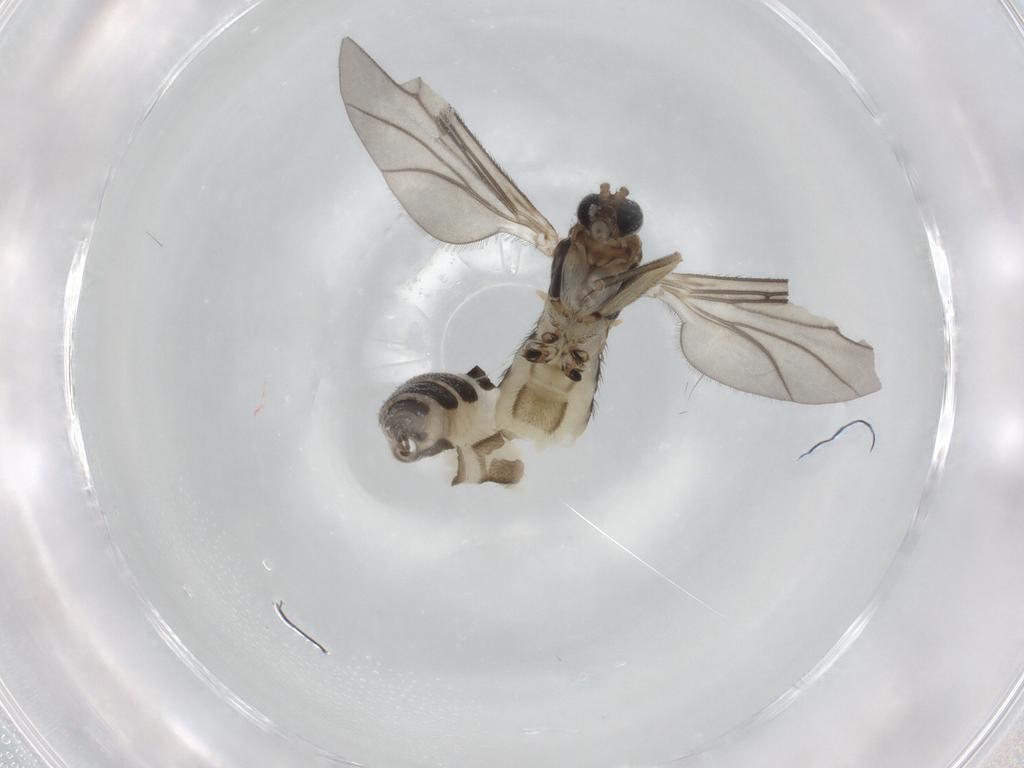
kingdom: Animalia
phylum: Arthropoda
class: Insecta
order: Diptera
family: Sciaridae
